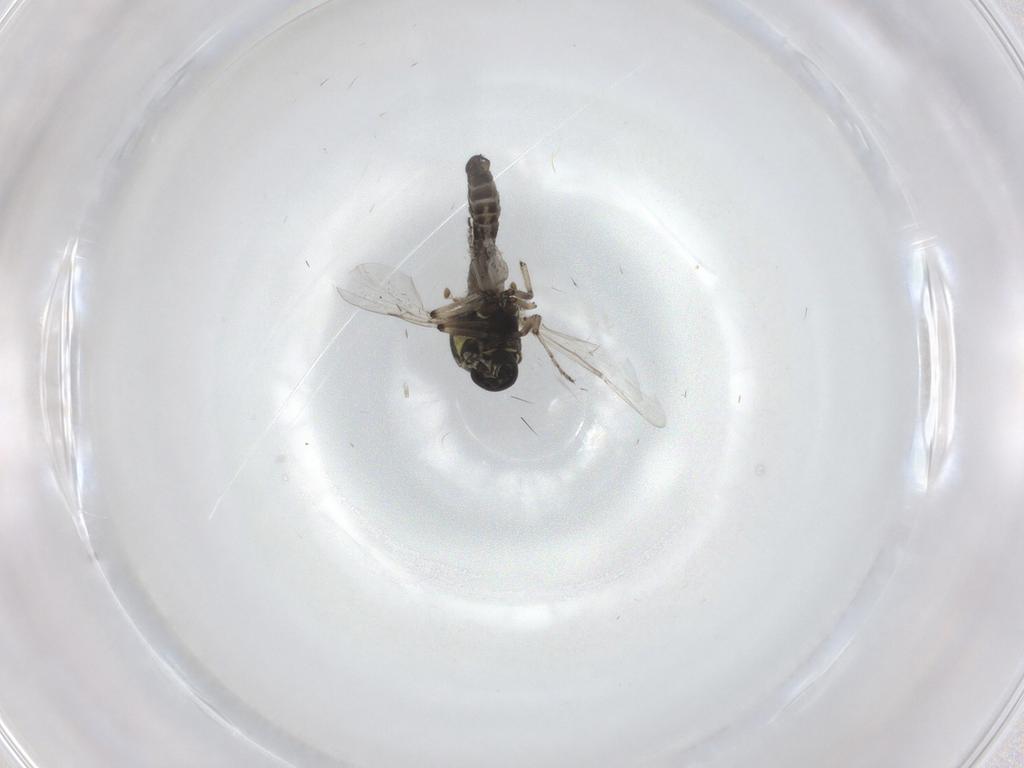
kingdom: Animalia
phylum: Arthropoda
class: Insecta
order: Diptera
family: Ceratopogonidae
